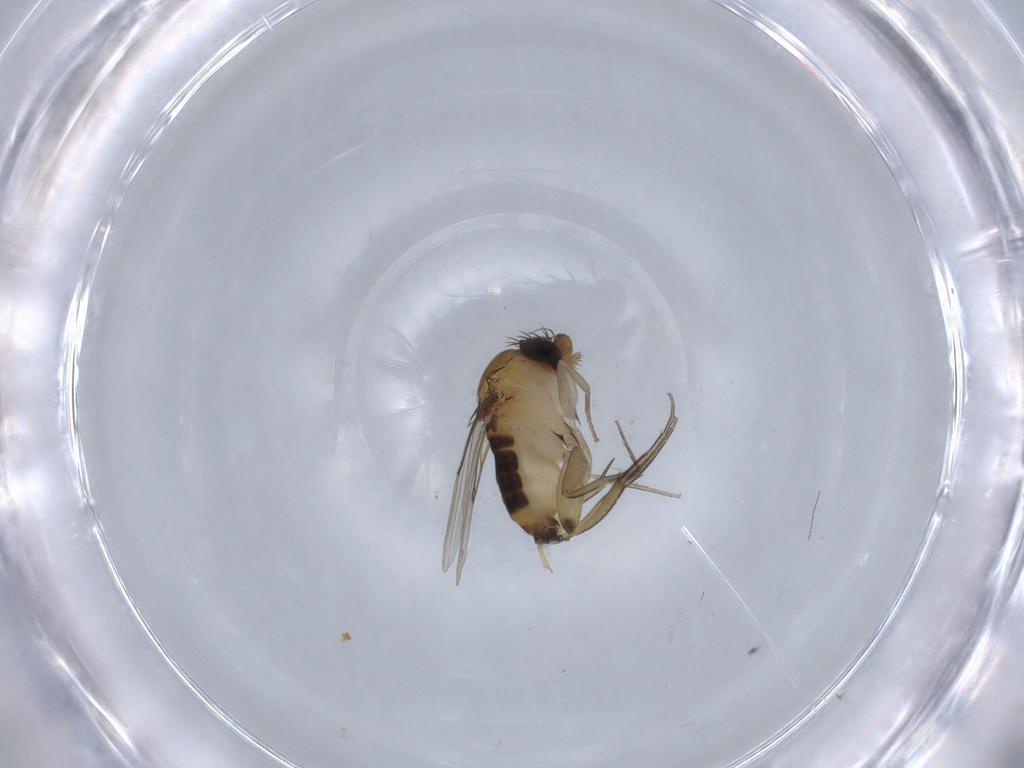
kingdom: Animalia
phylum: Arthropoda
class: Insecta
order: Diptera
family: Phoridae
